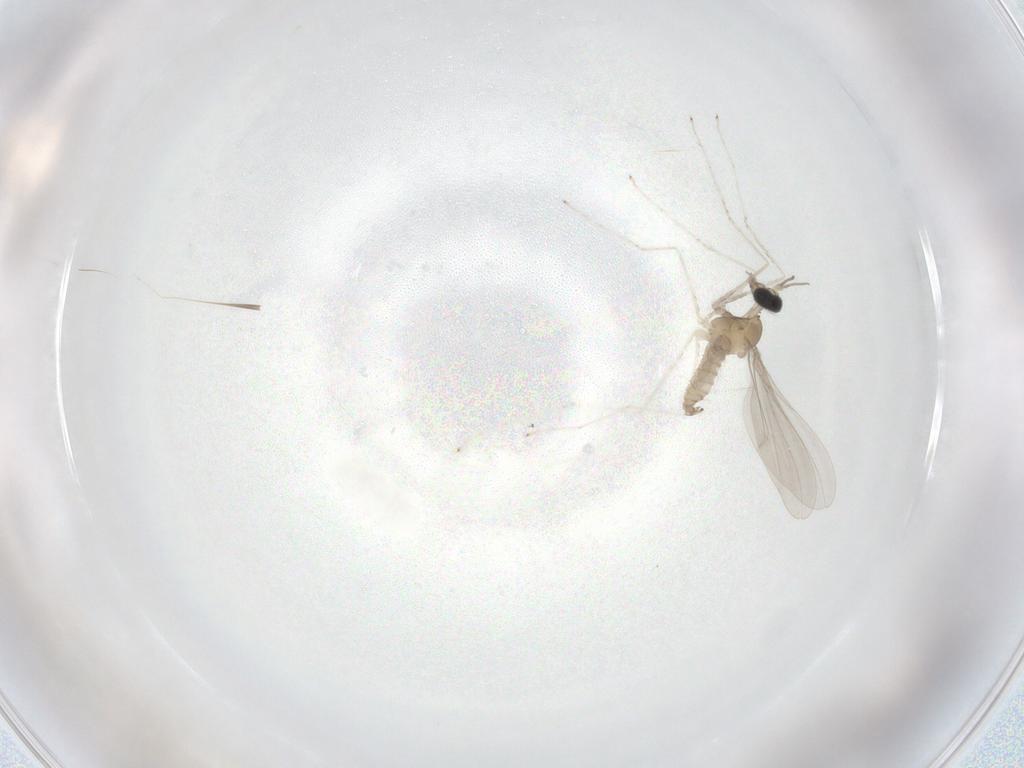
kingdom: Animalia
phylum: Arthropoda
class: Insecta
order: Diptera
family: Cecidomyiidae
